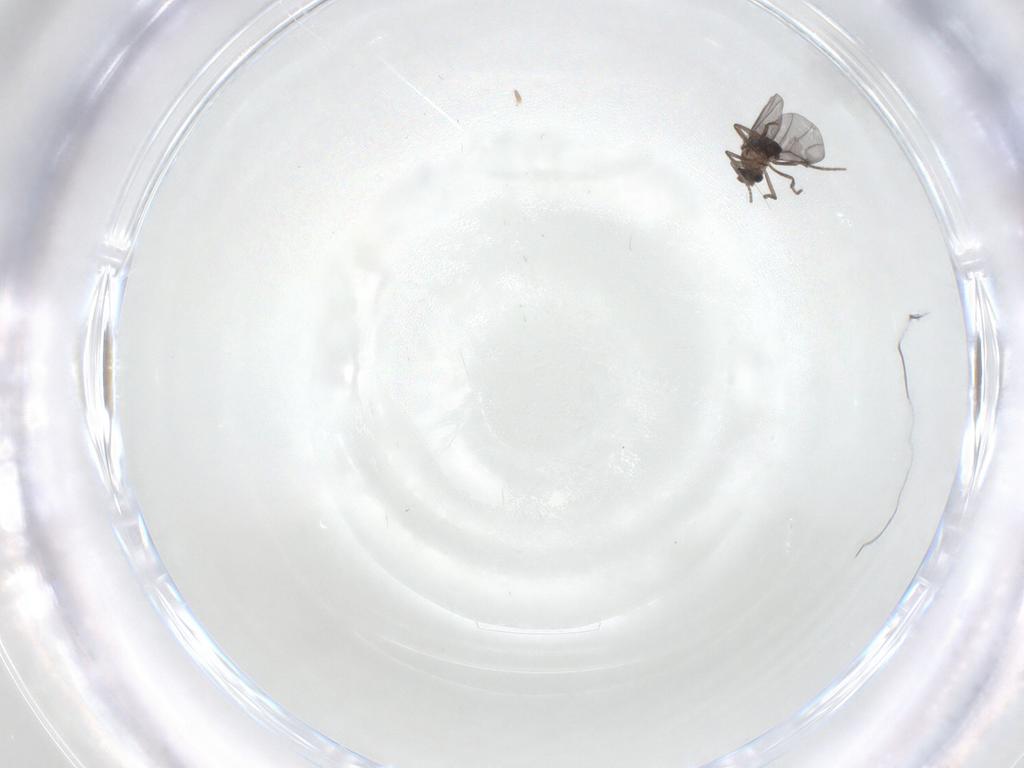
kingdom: Animalia
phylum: Arthropoda
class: Insecta
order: Diptera
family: Psychodidae
